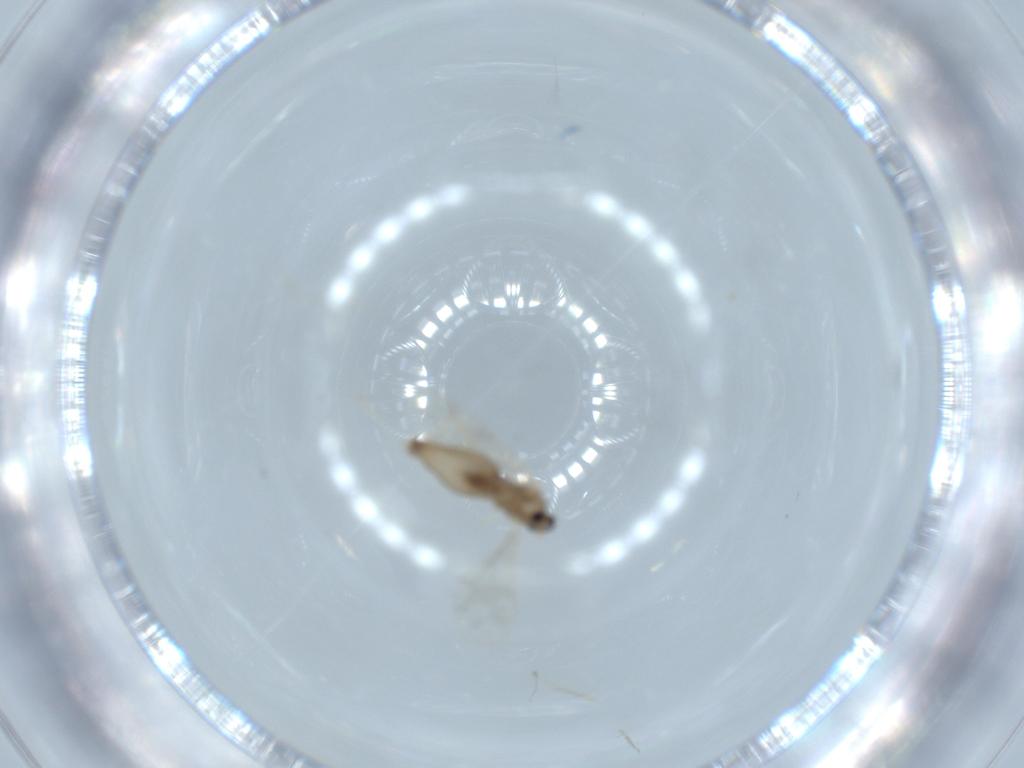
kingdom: Animalia
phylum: Arthropoda
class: Insecta
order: Diptera
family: Cecidomyiidae
